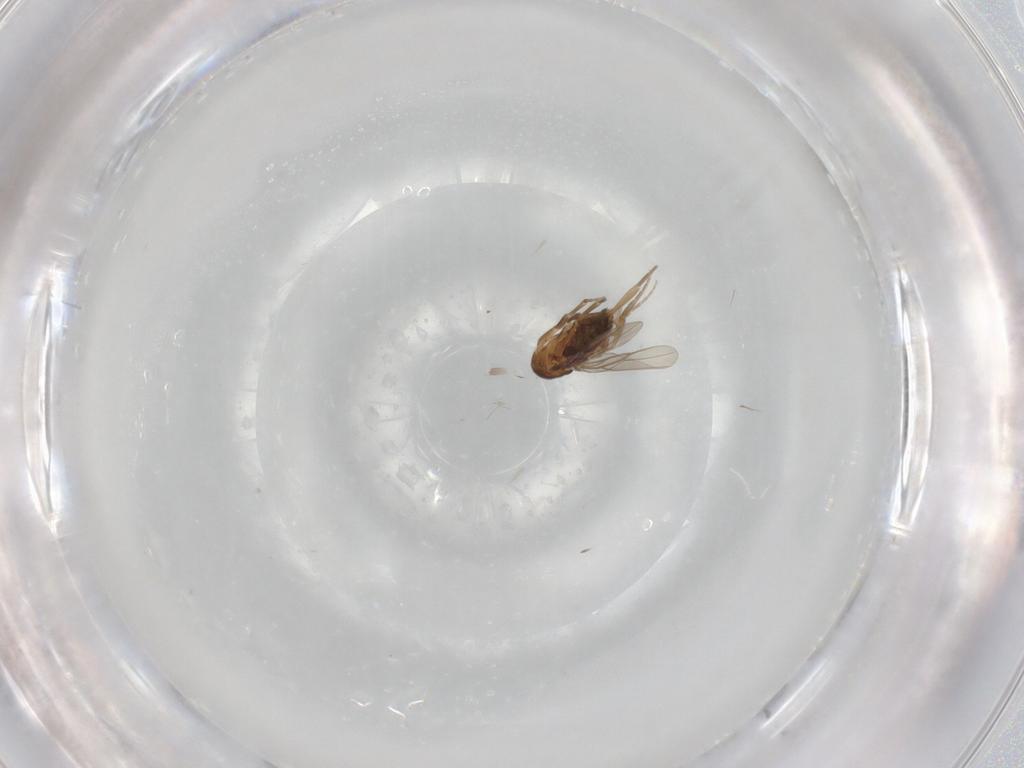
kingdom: Animalia
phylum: Arthropoda
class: Insecta
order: Diptera
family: Phoridae
